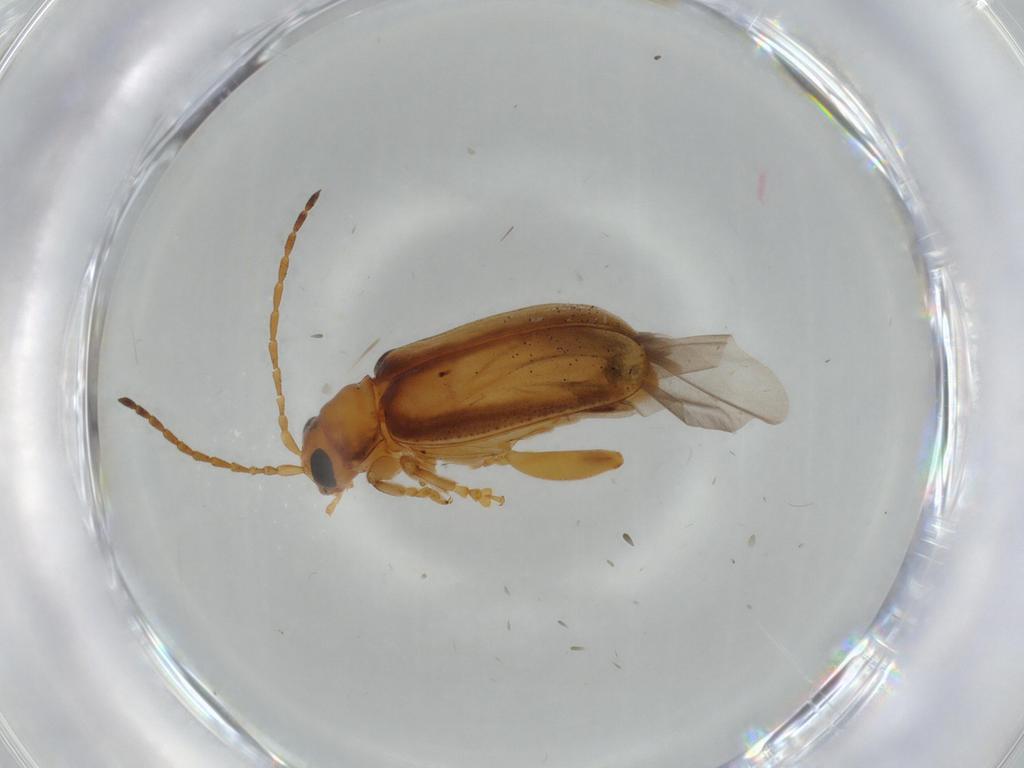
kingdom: Animalia
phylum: Arthropoda
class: Insecta
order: Coleoptera
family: Chrysomelidae
